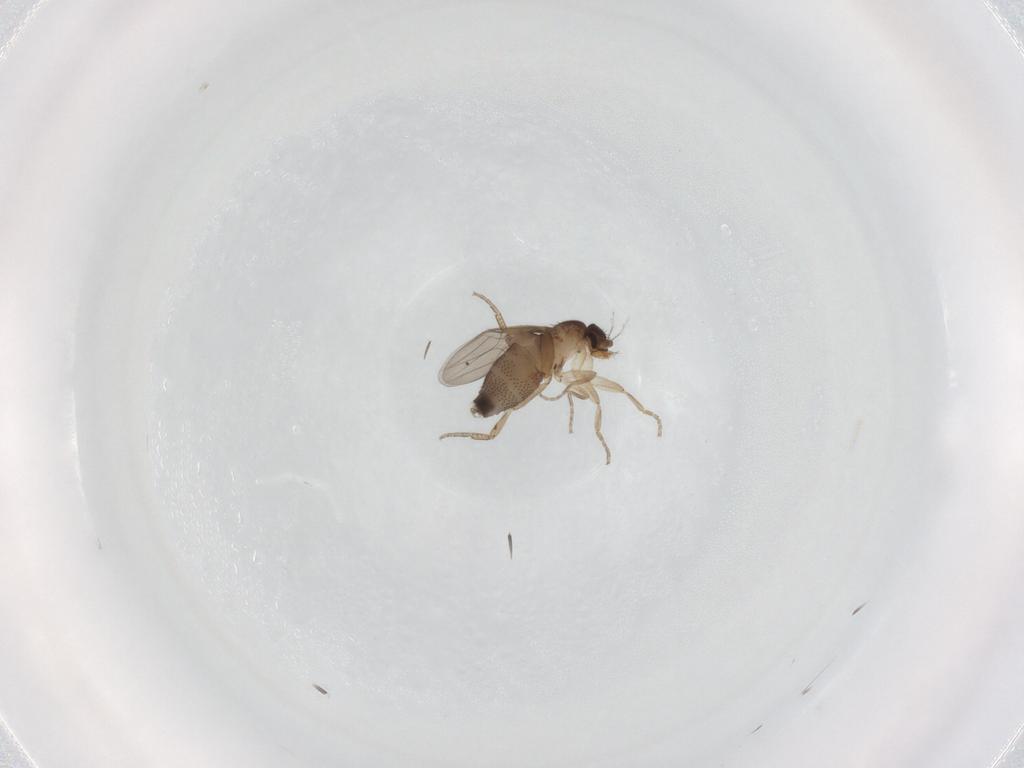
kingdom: Animalia
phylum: Arthropoda
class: Insecta
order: Diptera
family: Phoridae
